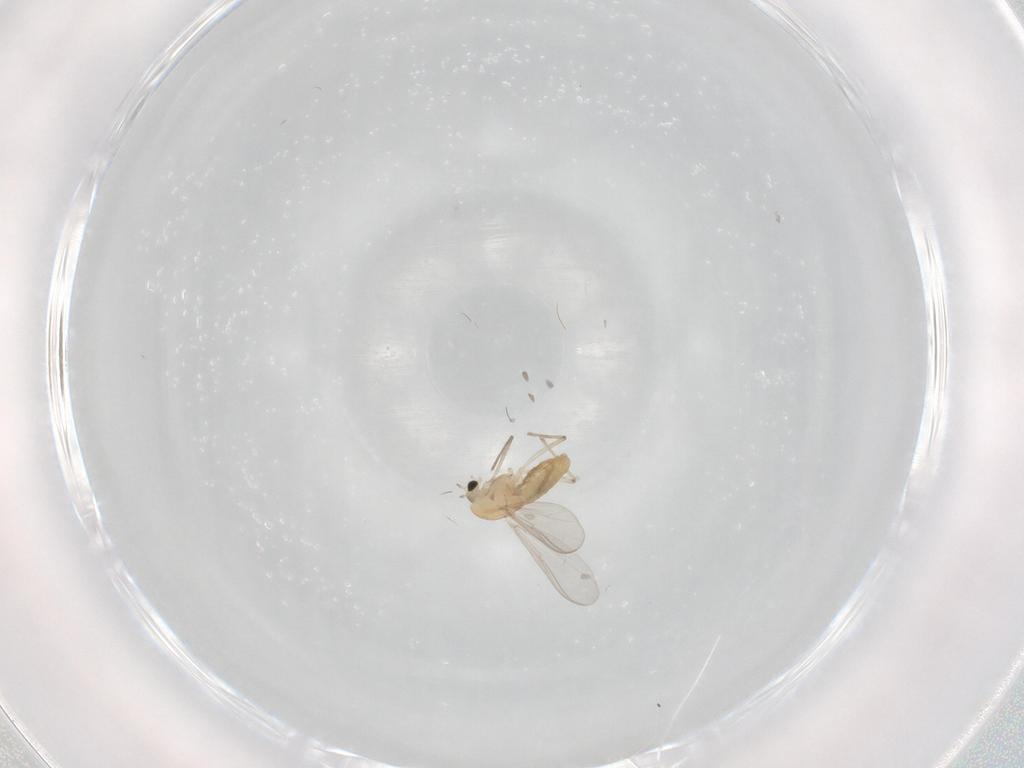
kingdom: Animalia
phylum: Arthropoda
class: Insecta
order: Diptera
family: Chironomidae
